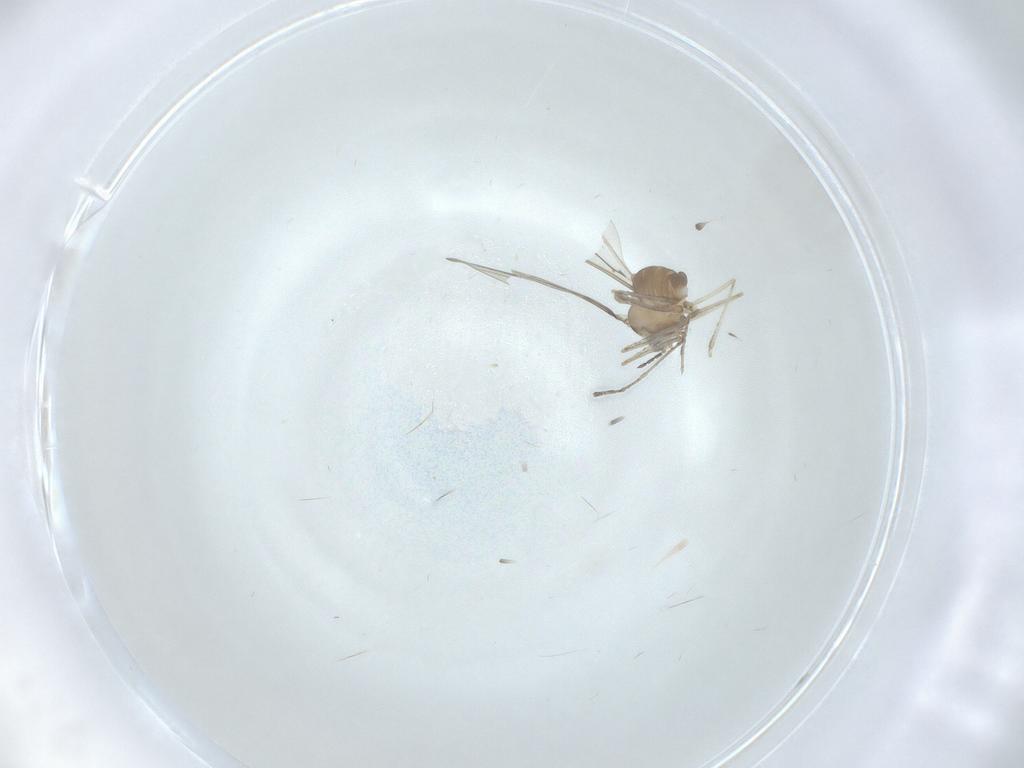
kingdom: Animalia
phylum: Arthropoda
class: Insecta
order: Diptera
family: Cecidomyiidae
